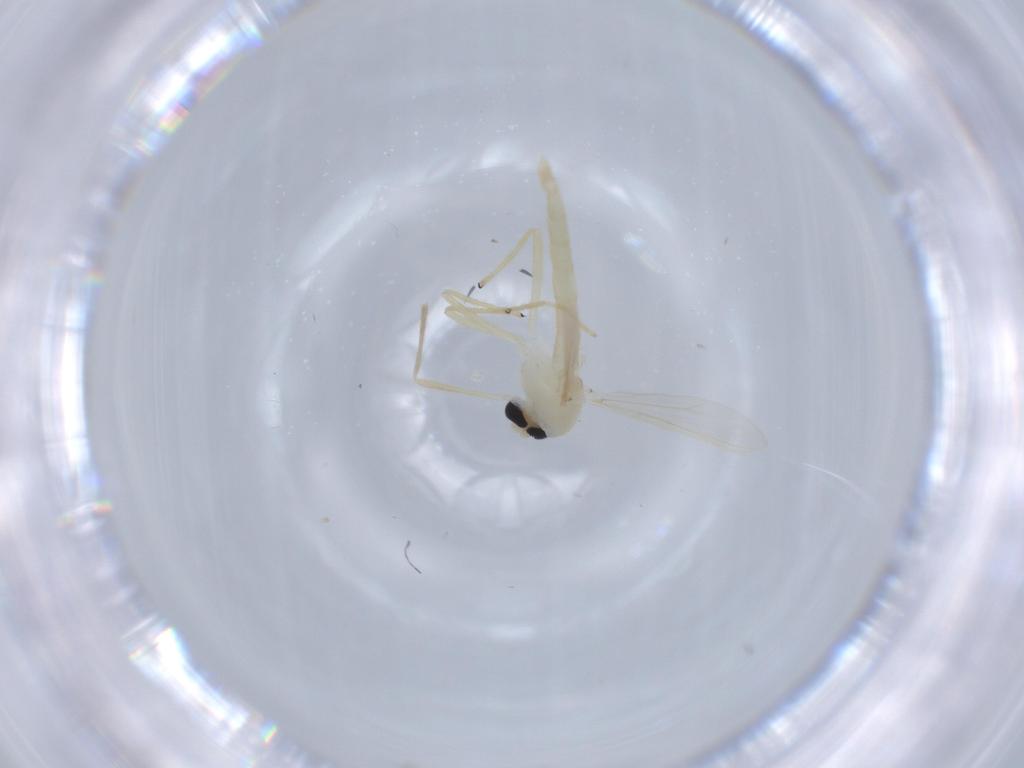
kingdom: Animalia
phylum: Arthropoda
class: Insecta
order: Diptera
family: Chironomidae
